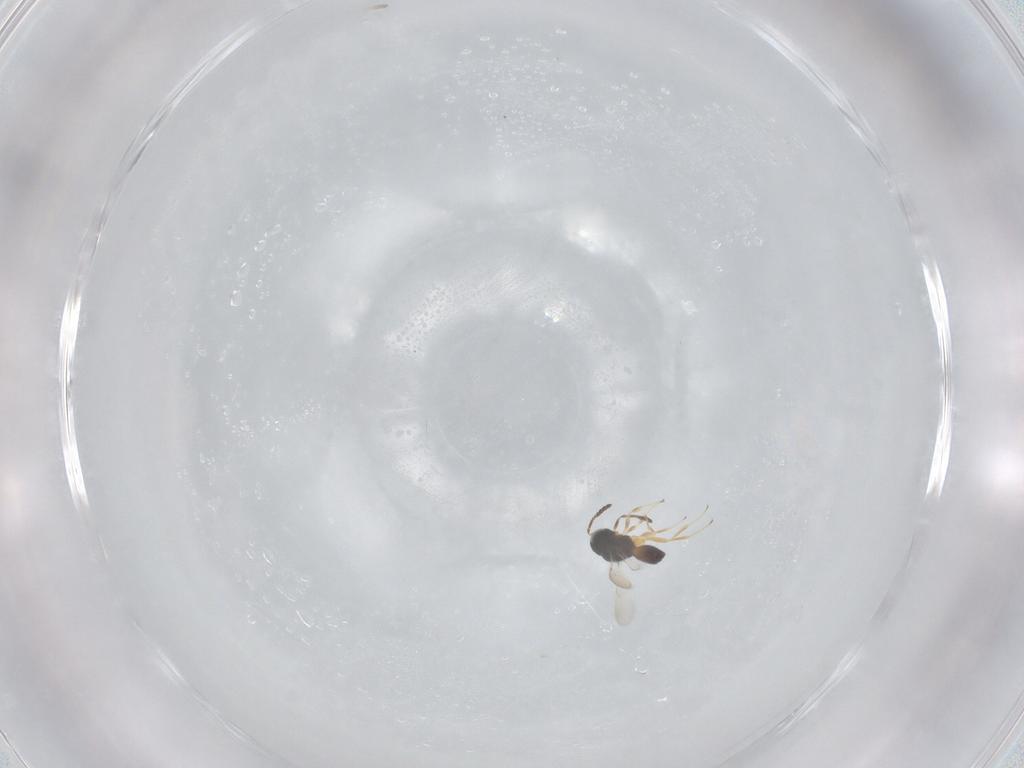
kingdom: Animalia
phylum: Arthropoda
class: Insecta
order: Hymenoptera
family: Scelionidae
